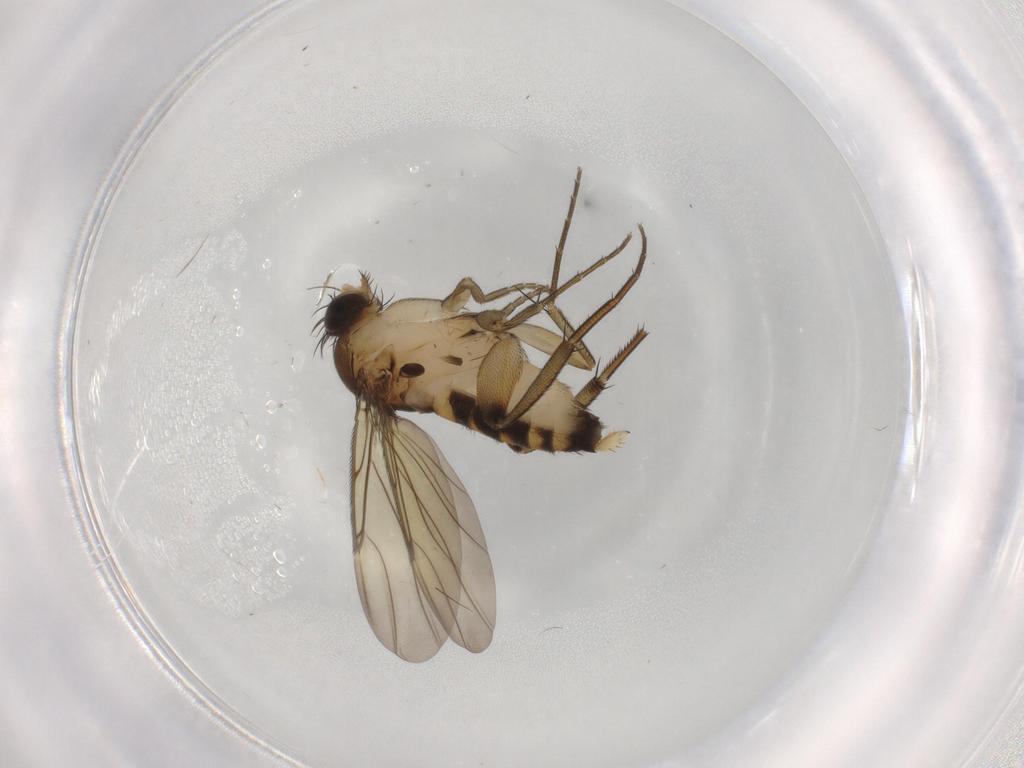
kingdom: Animalia
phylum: Arthropoda
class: Insecta
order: Diptera
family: Phoridae
